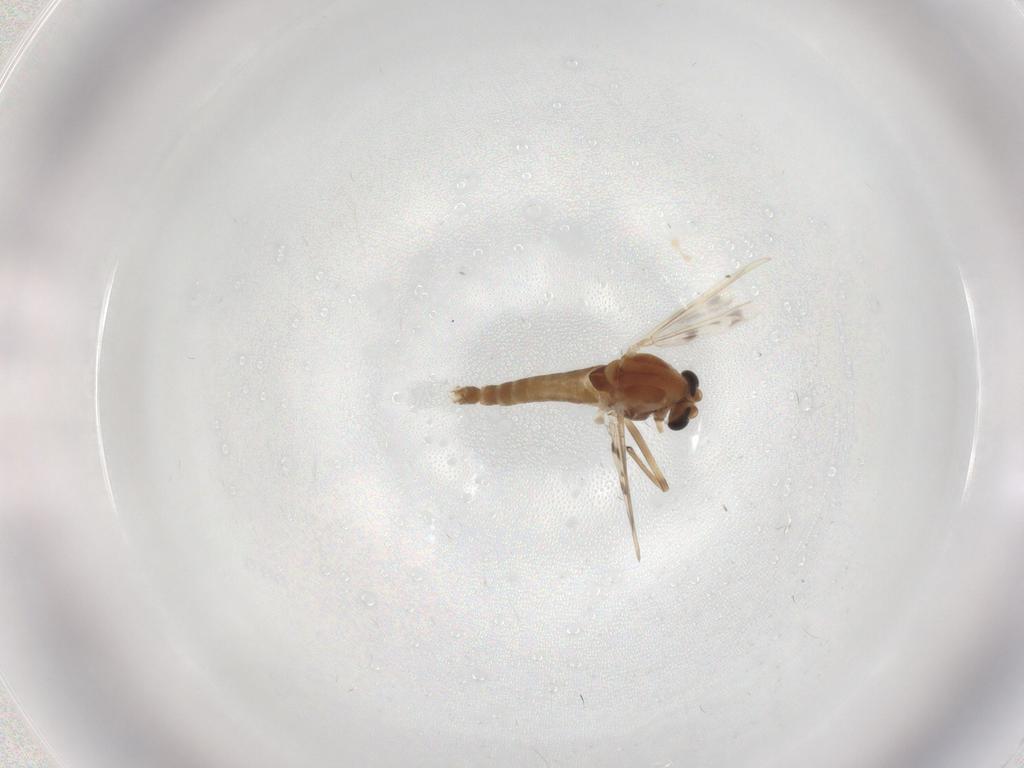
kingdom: Animalia
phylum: Arthropoda
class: Insecta
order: Diptera
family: Chironomidae
